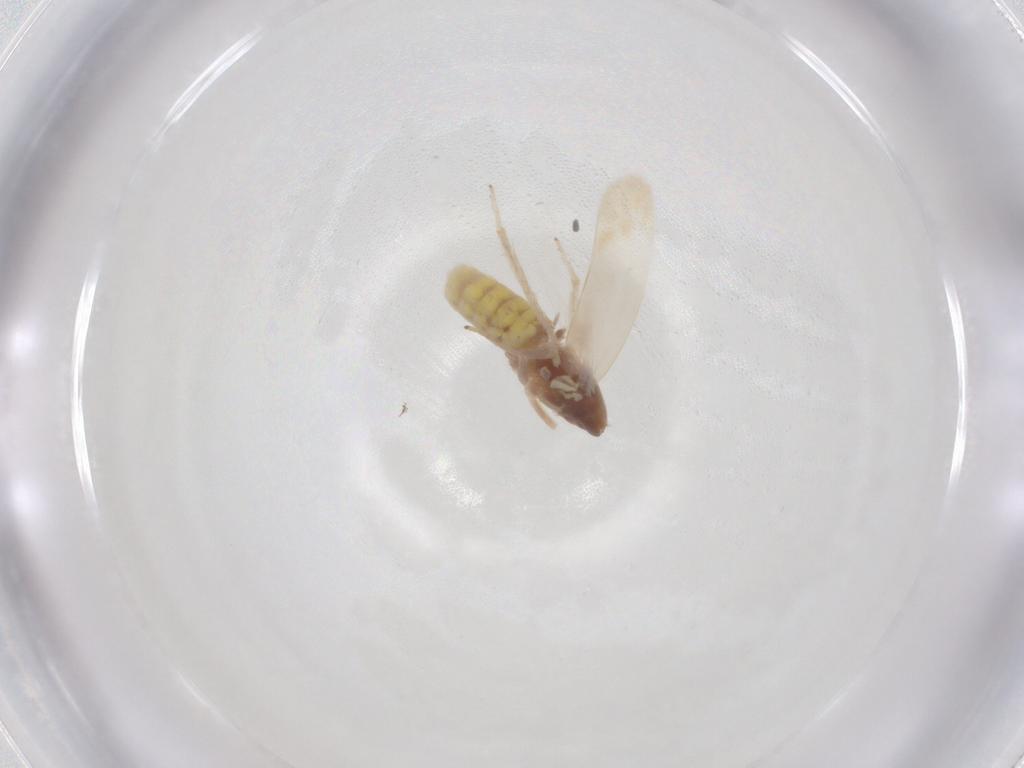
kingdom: Animalia
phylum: Arthropoda
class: Insecta
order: Hemiptera
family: Cicadellidae
